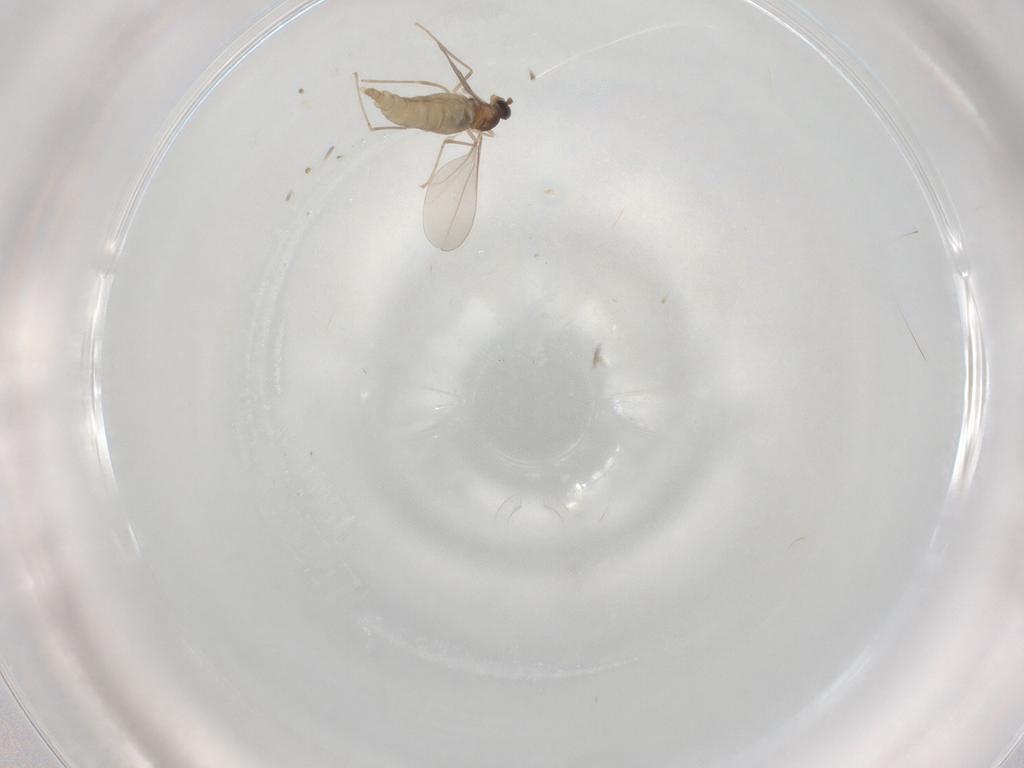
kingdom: Animalia
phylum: Arthropoda
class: Insecta
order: Diptera
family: Cecidomyiidae
